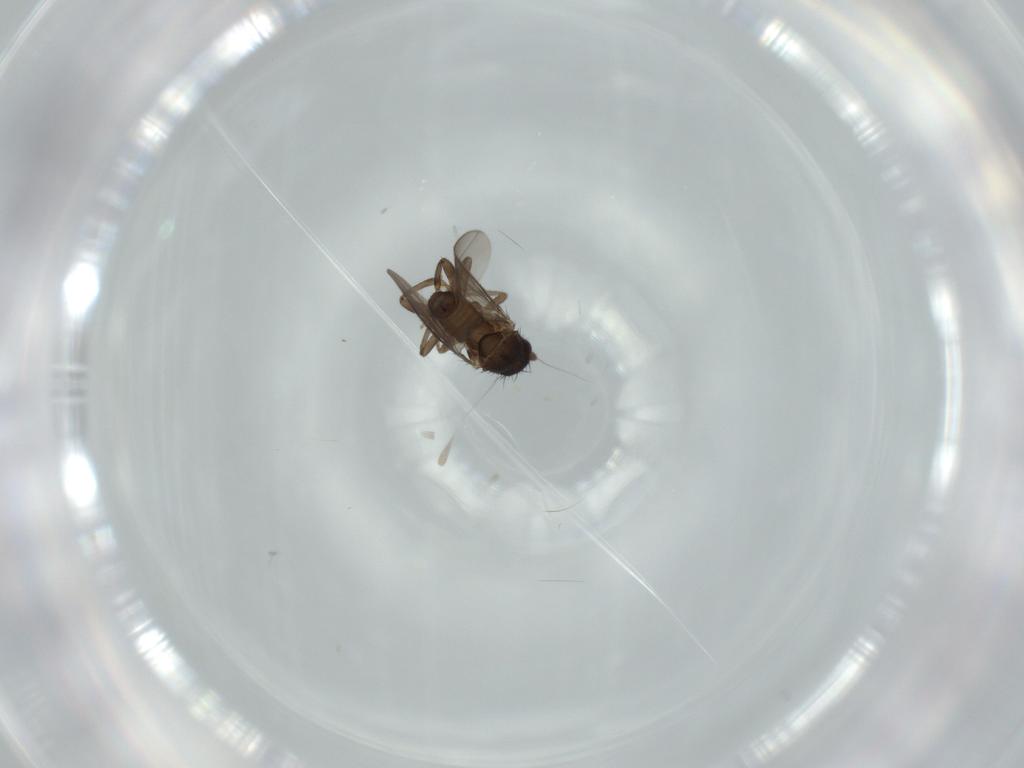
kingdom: Animalia
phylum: Arthropoda
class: Insecta
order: Diptera
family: Sphaeroceridae
